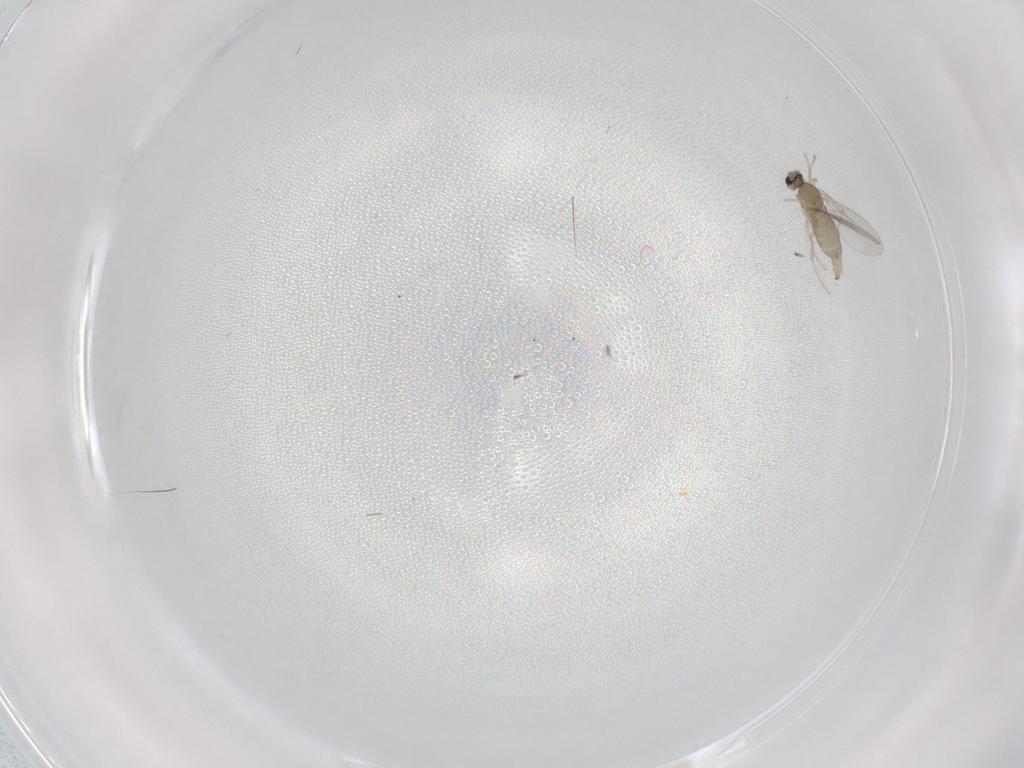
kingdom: Animalia
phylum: Arthropoda
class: Insecta
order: Diptera
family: Cecidomyiidae
